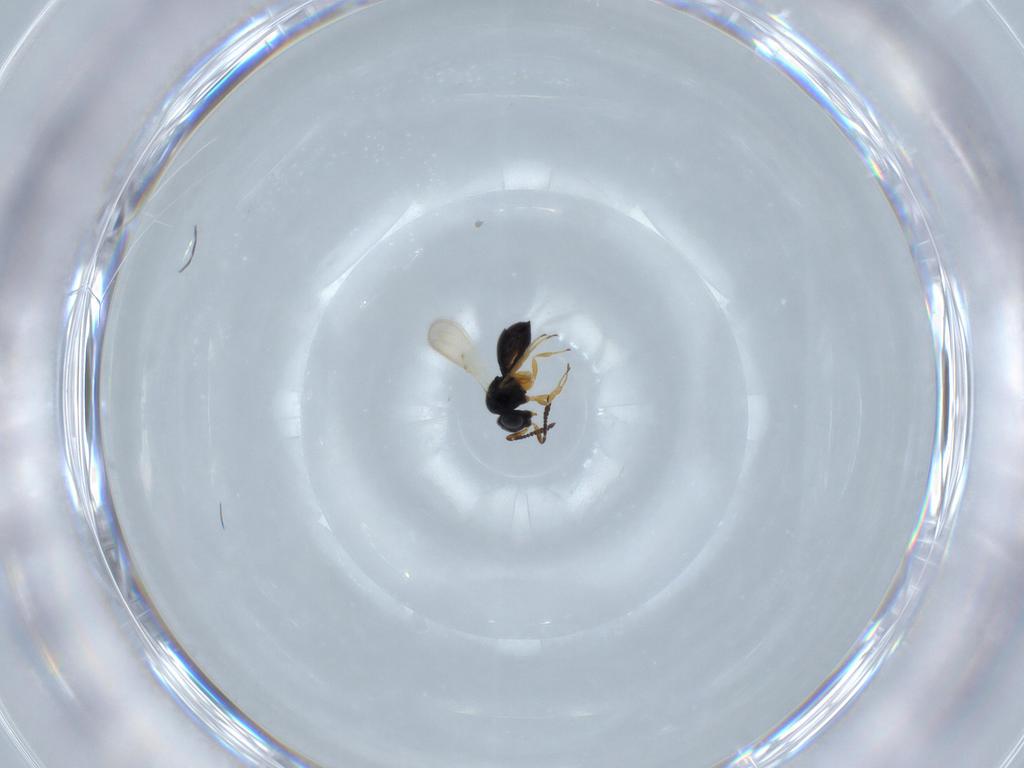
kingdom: Animalia
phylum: Arthropoda
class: Insecta
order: Hymenoptera
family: Scelionidae
